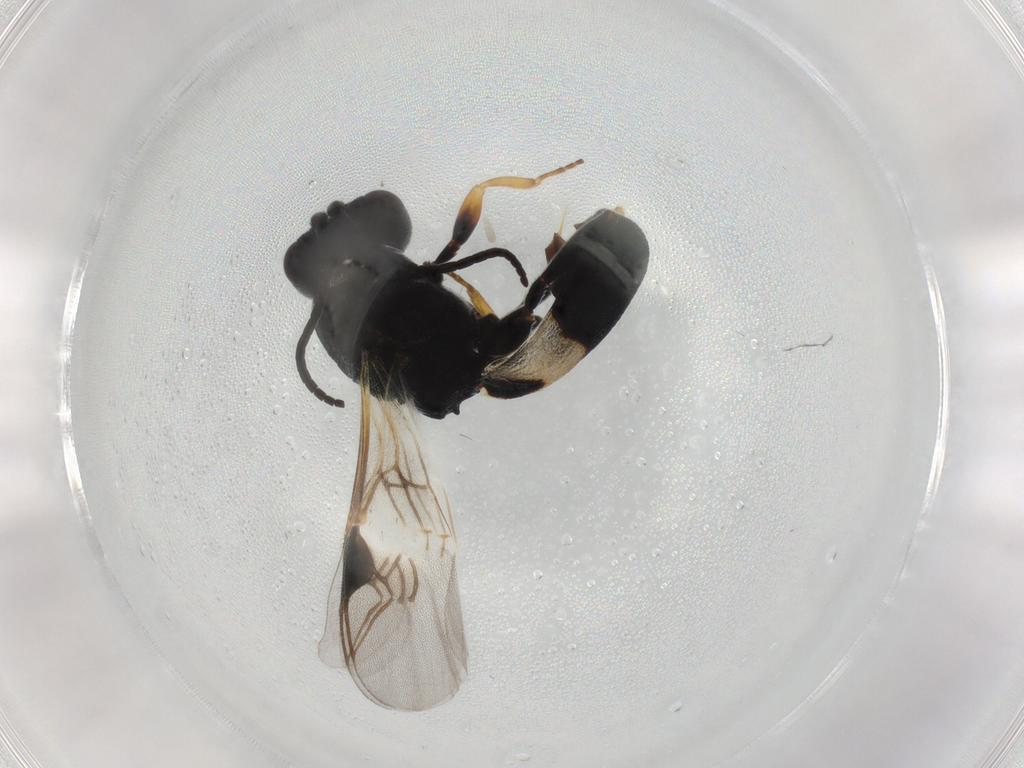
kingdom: Animalia
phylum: Arthropoda
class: Insecta
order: Hymenoptera
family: Braconidae
